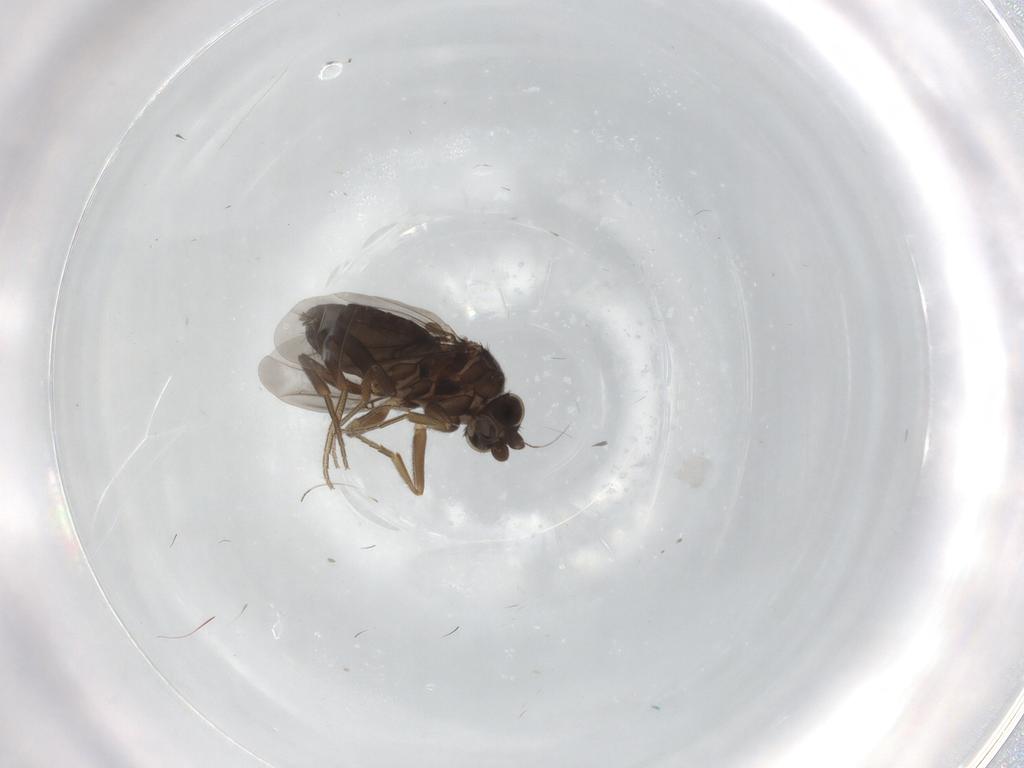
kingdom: Animalia
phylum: Arthropoda
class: Insecta
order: Diptera
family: Phoridae
